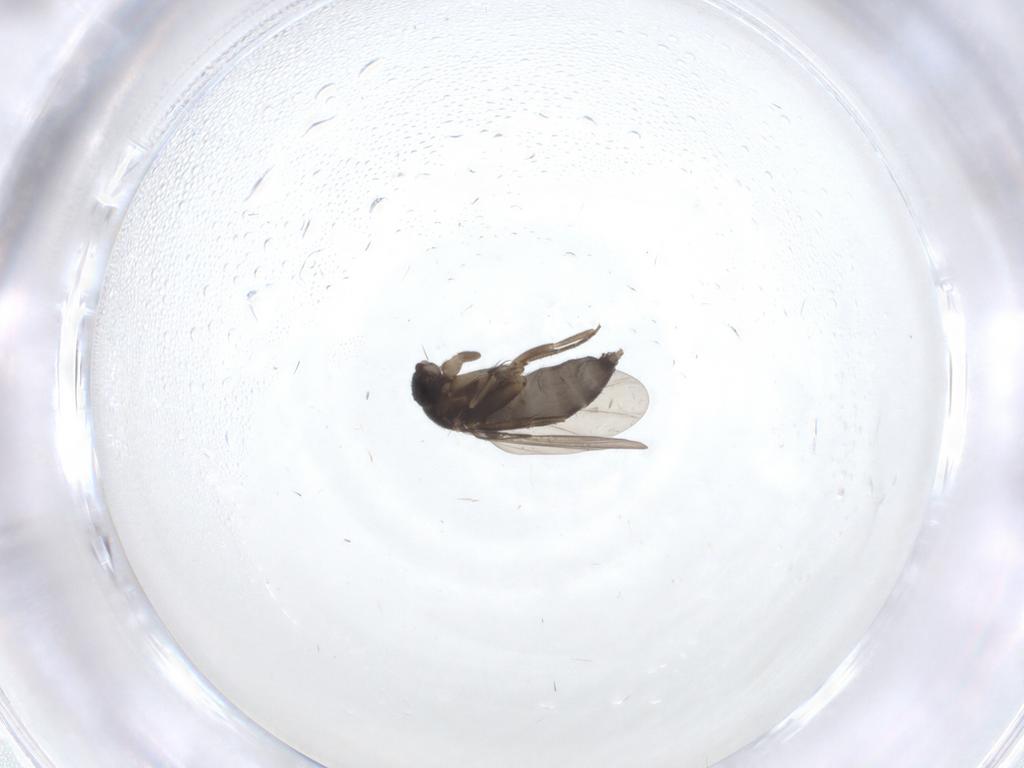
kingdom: Animalia
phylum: Arthropoda
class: Insecta
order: Diptera
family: Phoridae
